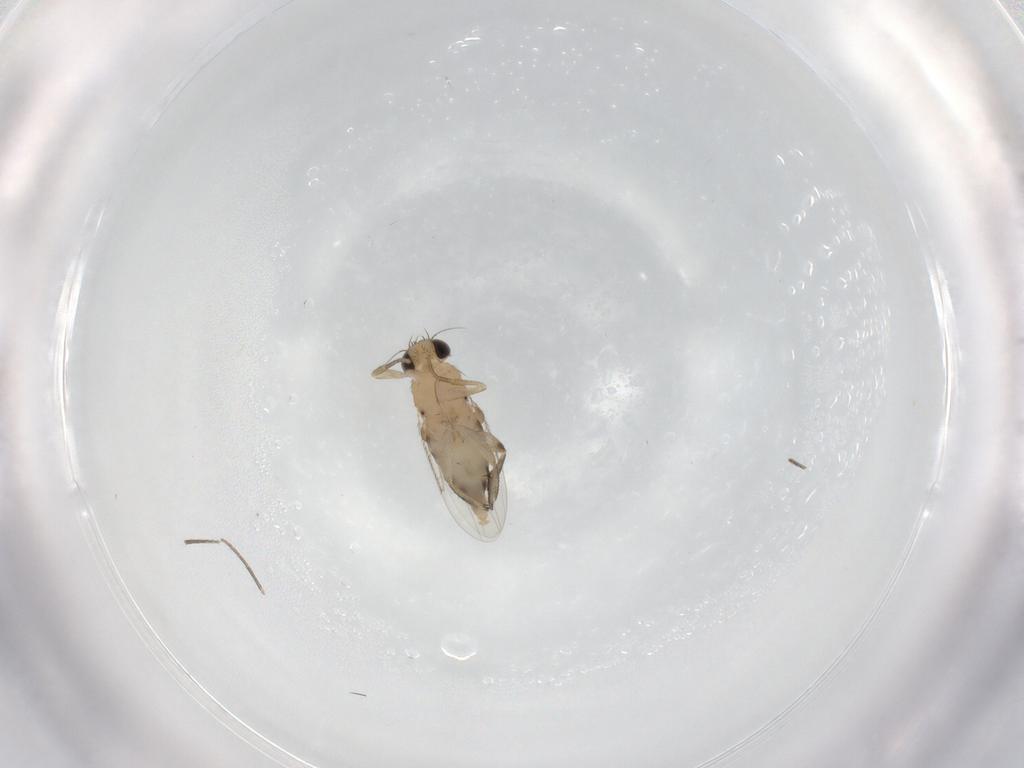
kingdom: Animalia
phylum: Arthropoda
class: Insecta
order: Diptera
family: Phoridae
